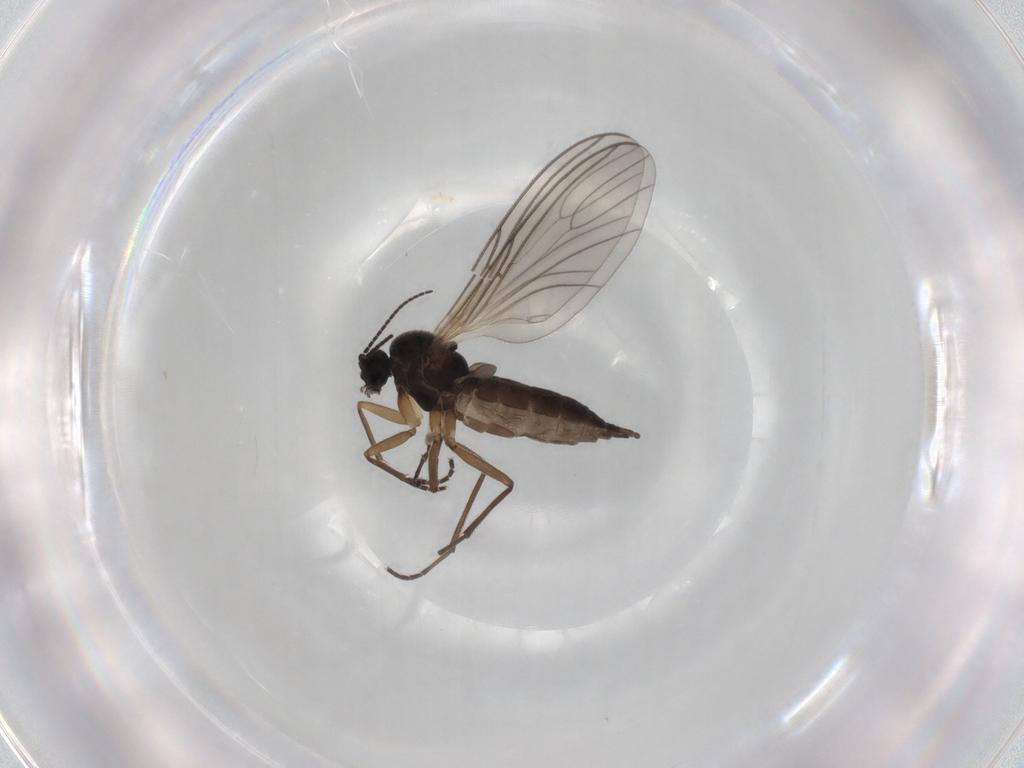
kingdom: Animalia
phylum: Arthropoda
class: Insecta
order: Diptera
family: Sciaridae
